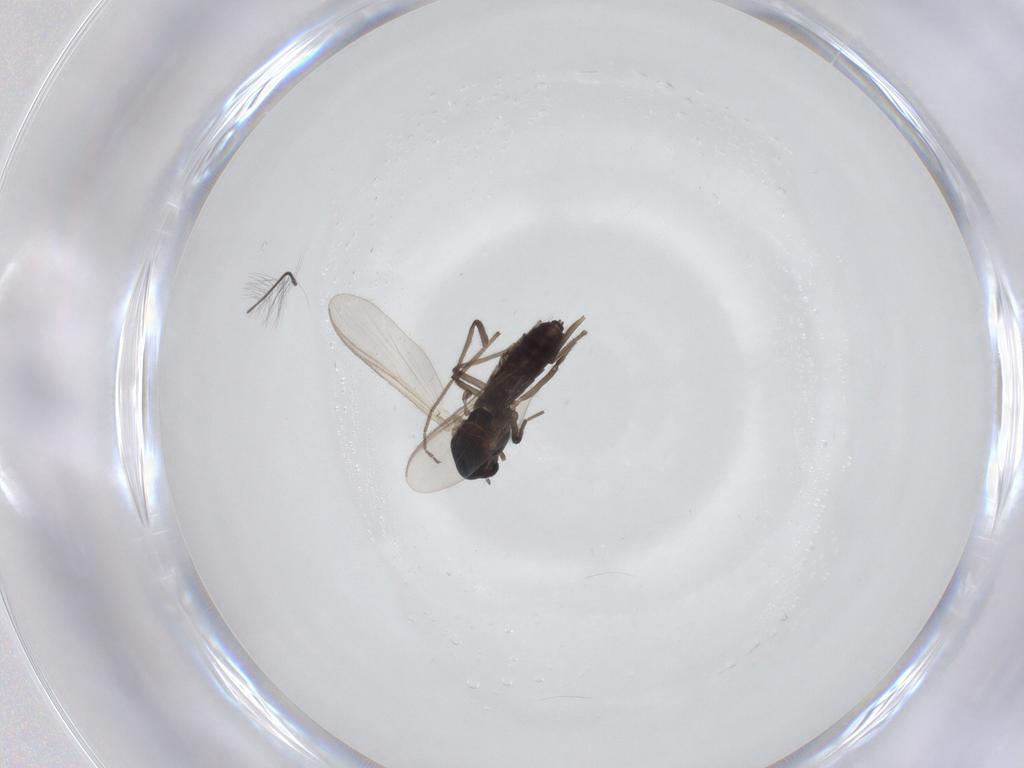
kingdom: Animalia
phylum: Arthropoda
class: Insecta
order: Diptera
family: Chironomidae
